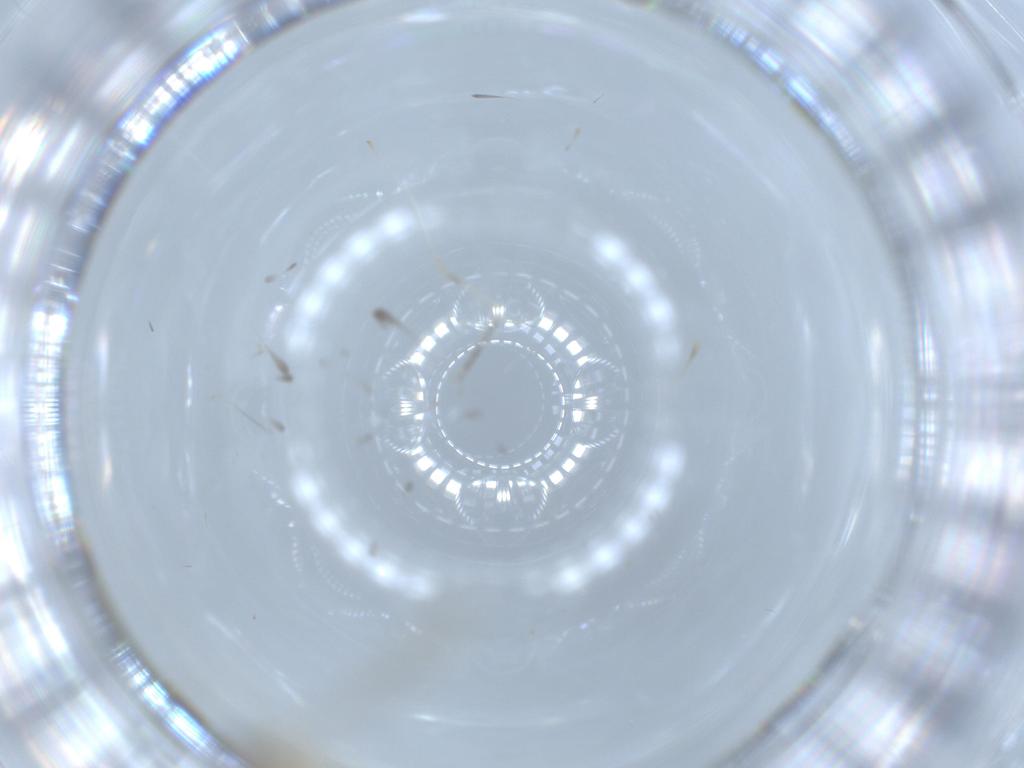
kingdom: Animalia
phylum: Arthropoda
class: Insecta
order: Diptera
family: Cecidomyiidae
